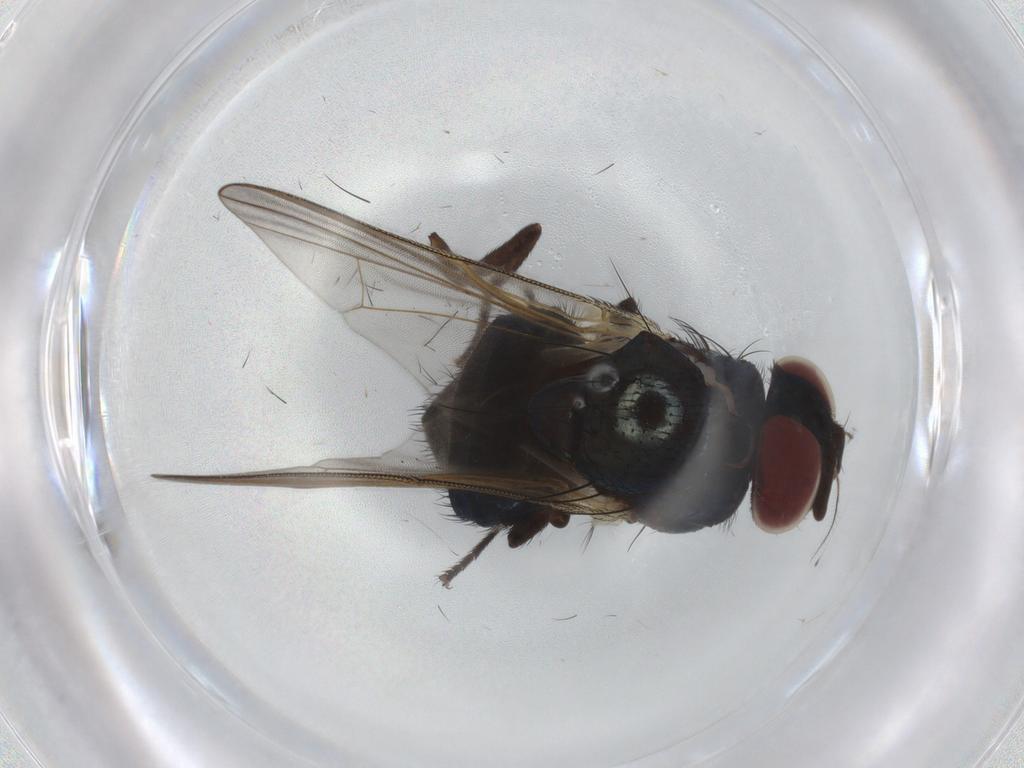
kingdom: Animalia
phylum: Arthropoda
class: Insecta
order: Diptera
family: Lonchaeidae
